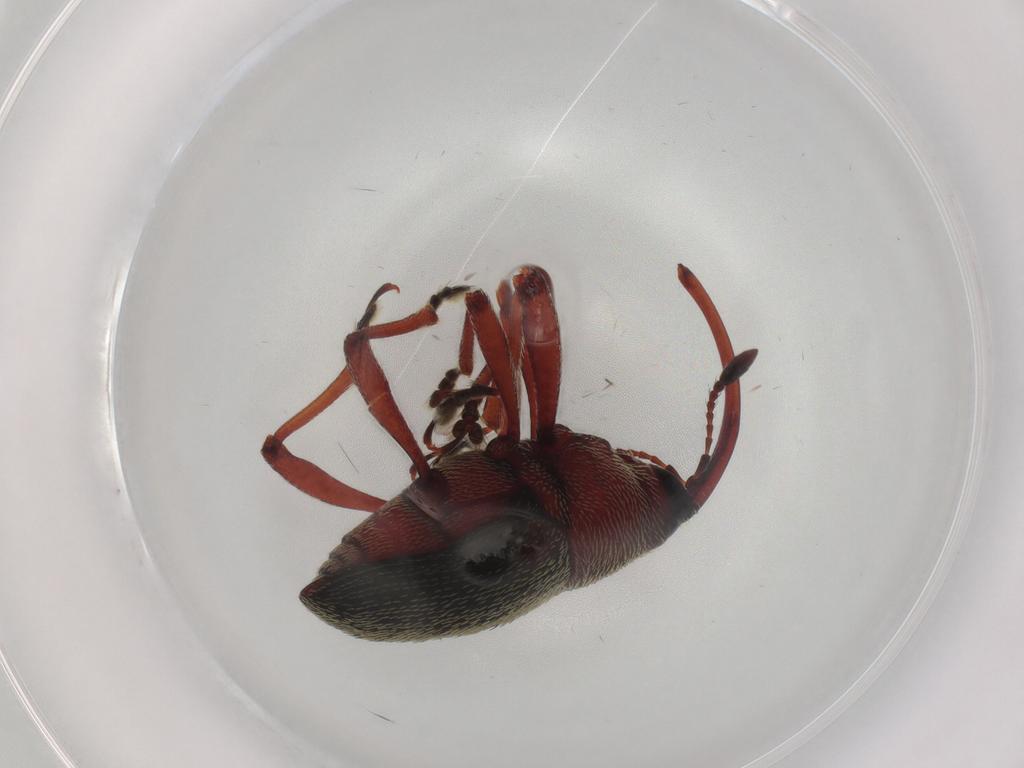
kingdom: Animalia
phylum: Arthropoda
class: Insecta
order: Coleoptera
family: Curculionidae
